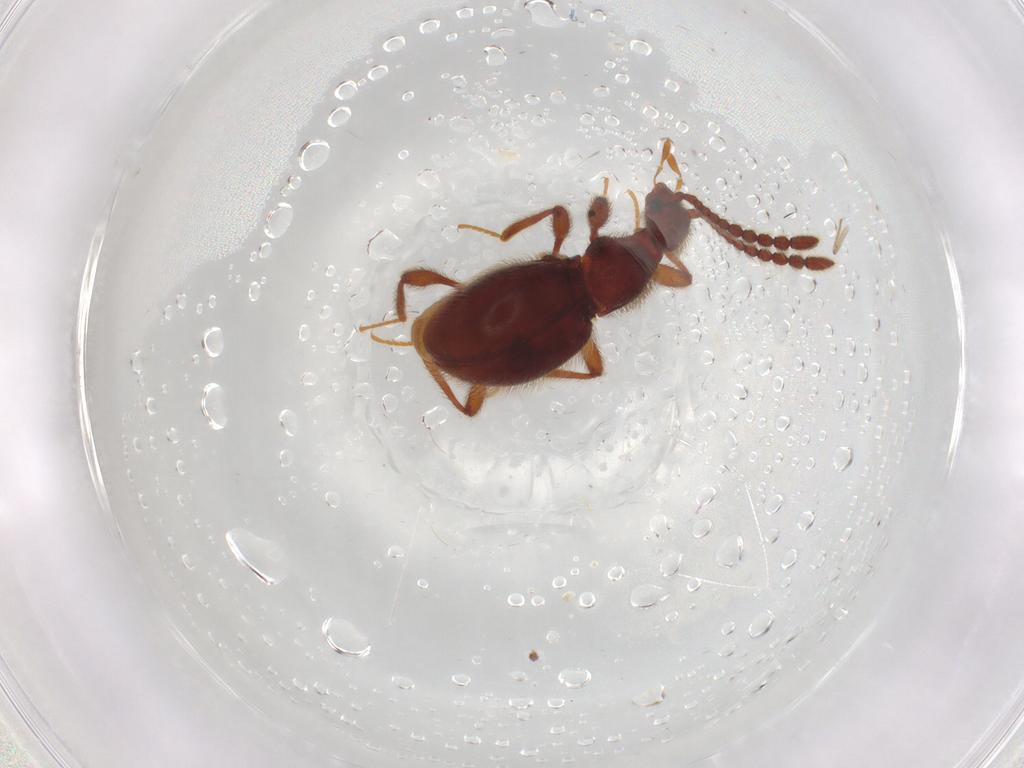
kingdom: Animalia
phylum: Arthropoda
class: Insecta
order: Coleoptera
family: Staphylinidae
